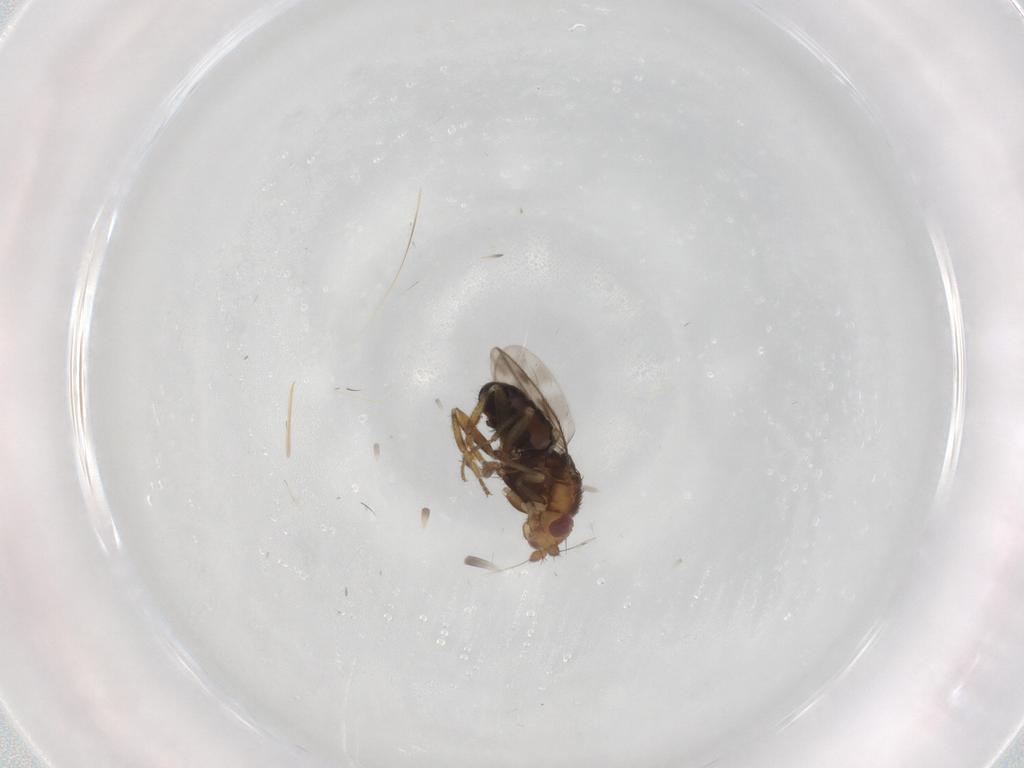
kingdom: Animalia
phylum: Arthropoda
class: Insecta
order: Diptera
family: Sphaeroceridae
